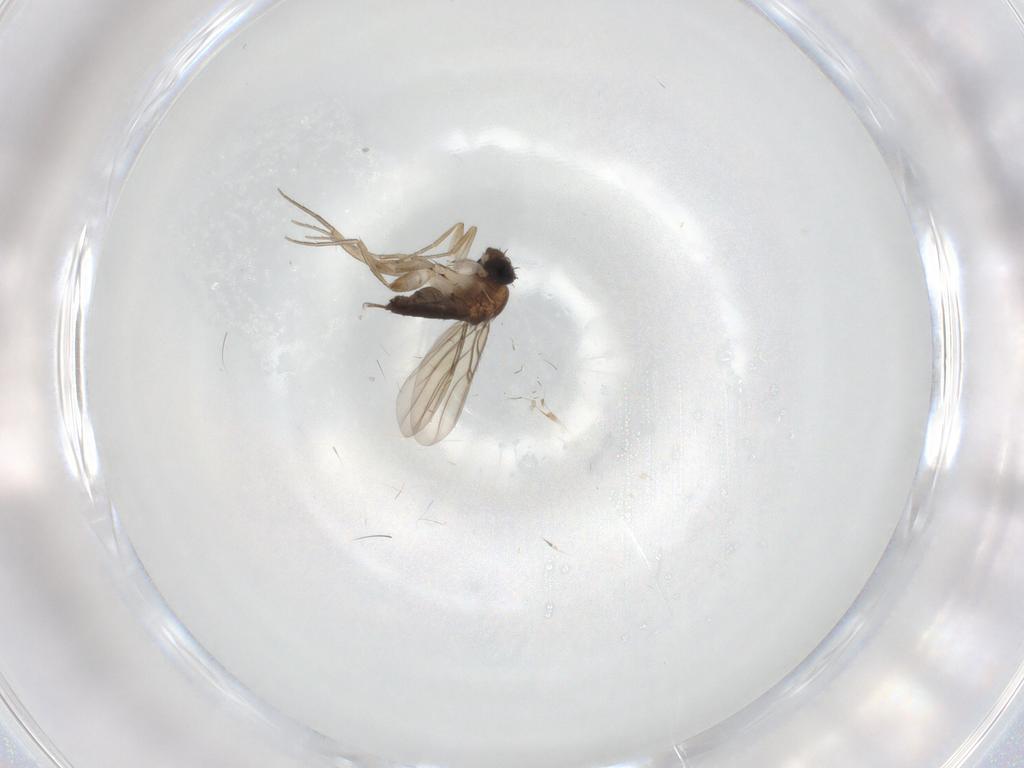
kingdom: Animalia
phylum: Arthropoda
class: Insecta
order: Diptera
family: Phoridae
